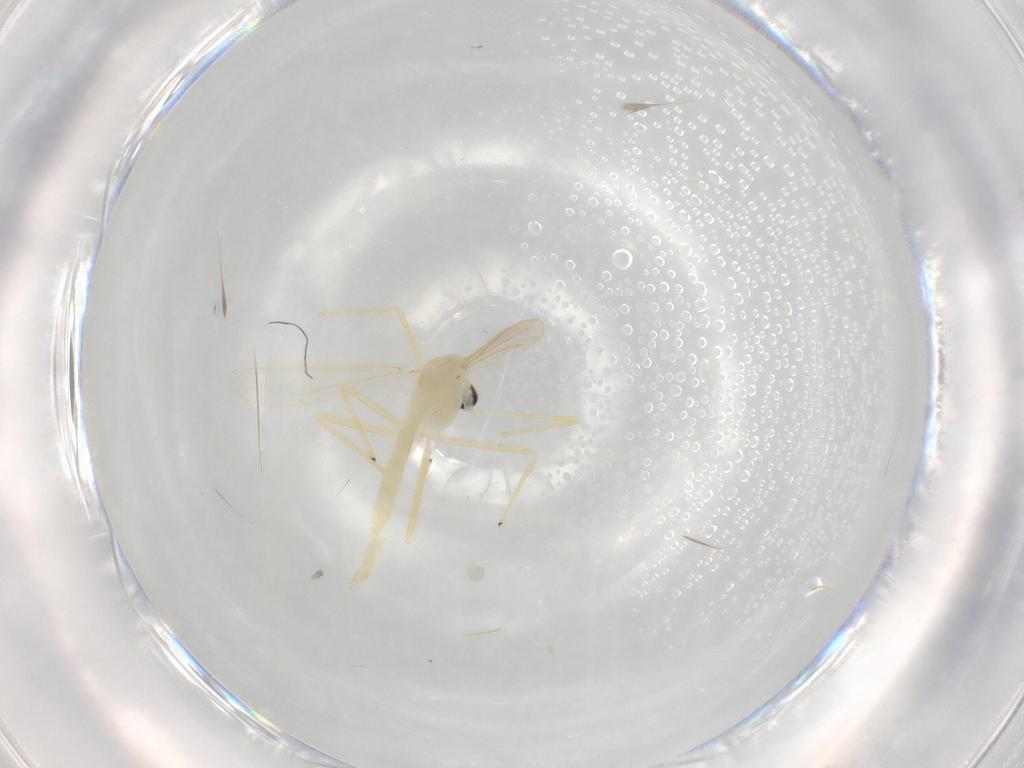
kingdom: Animalia
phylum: Arthropoda
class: Insecta
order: Diptera
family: Chironomidae
